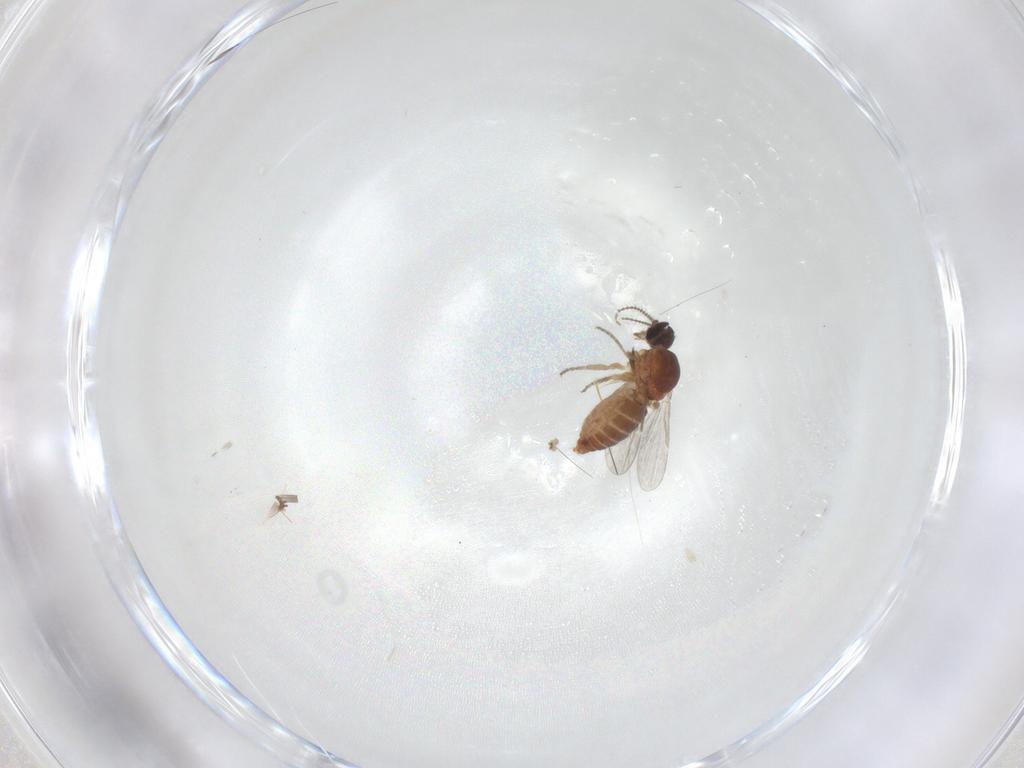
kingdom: Animalia
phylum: Arthropoda
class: Insecta
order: Diptera
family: Ceratopogonidae
